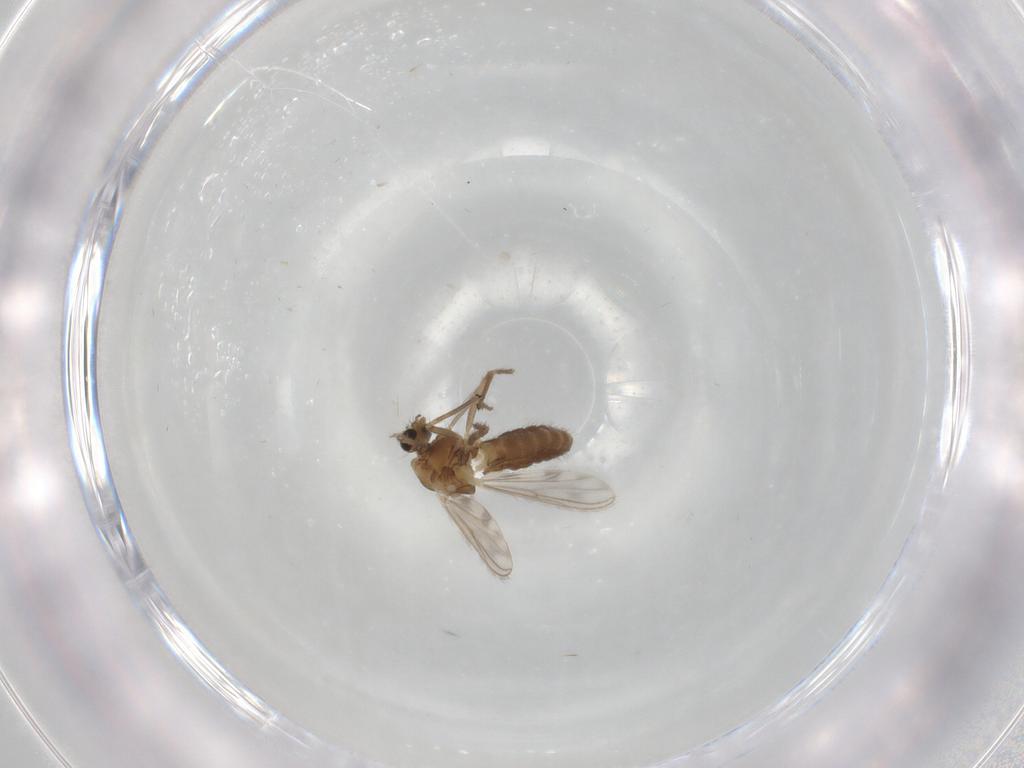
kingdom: Animalia
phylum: Arthropoda
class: Insecta
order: Diptera
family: Chironomidae
